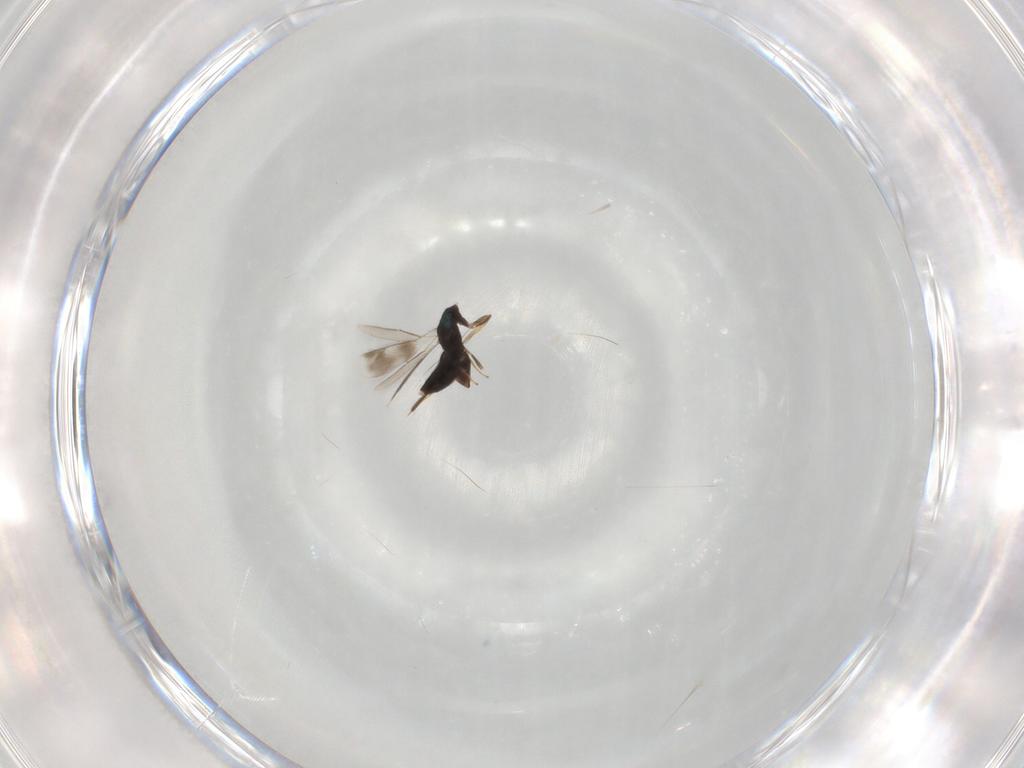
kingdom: Animalia
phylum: Arthropoda
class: Insecta
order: Hymenoptera
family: Pteromalidae
